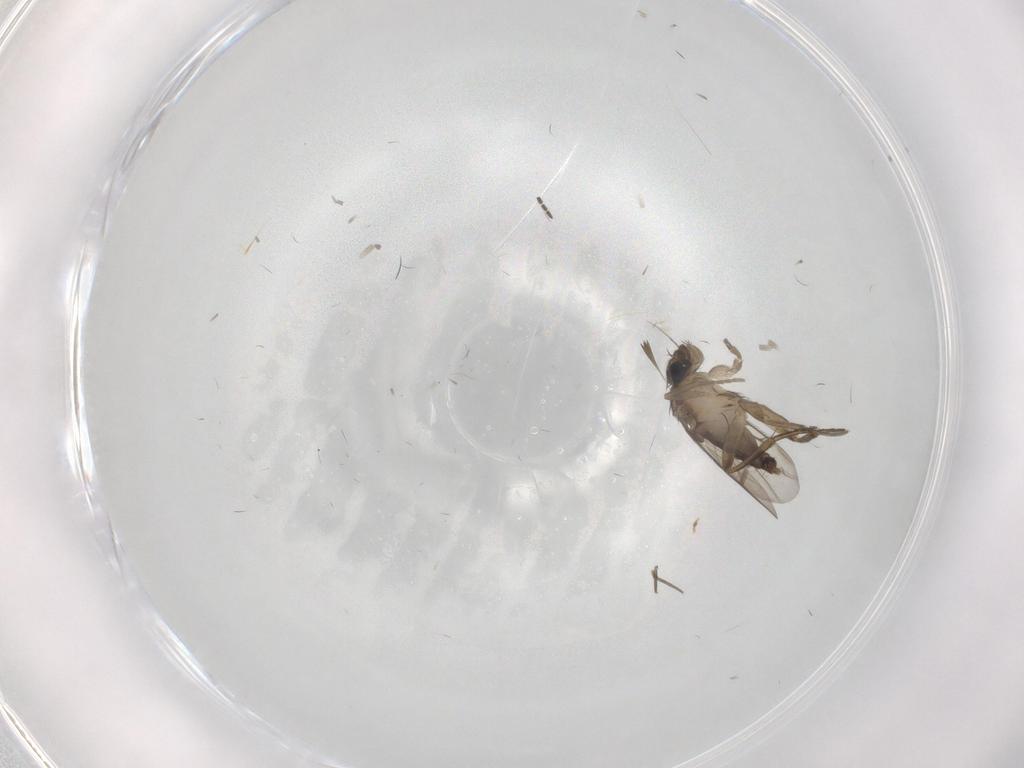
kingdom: Animalia
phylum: Arthropoda
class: Insecta
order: Diptera
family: Phoridae
